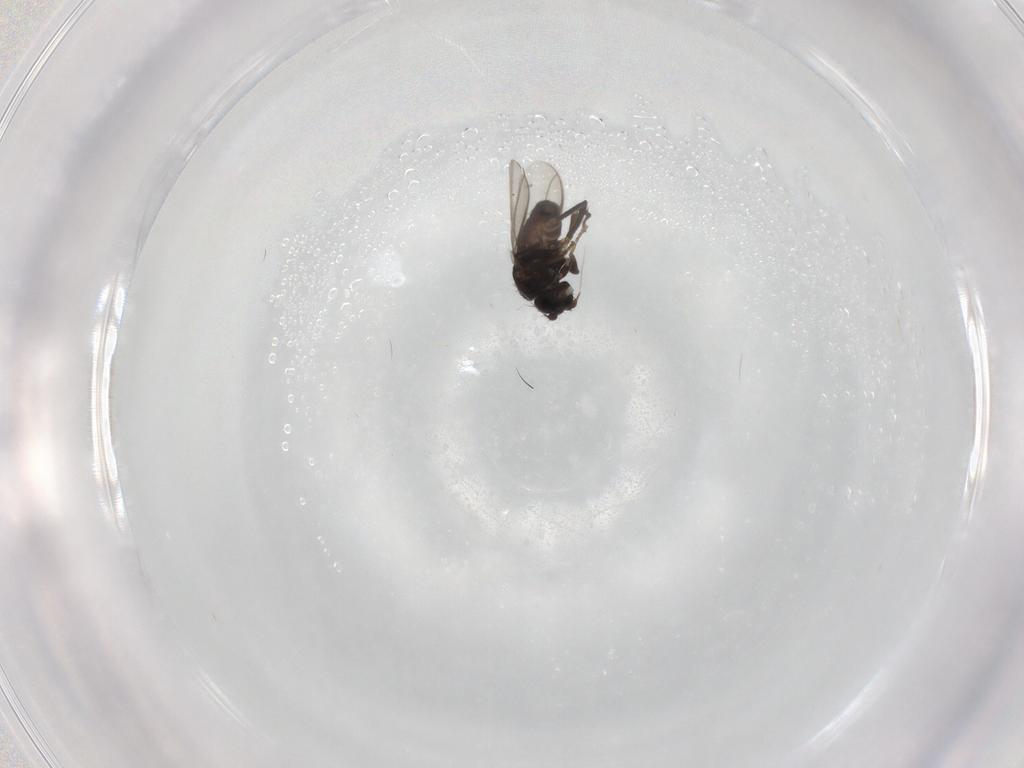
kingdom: Animalia
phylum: Arthropoda
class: Insecta
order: Diptera
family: Sphaeroceridae
